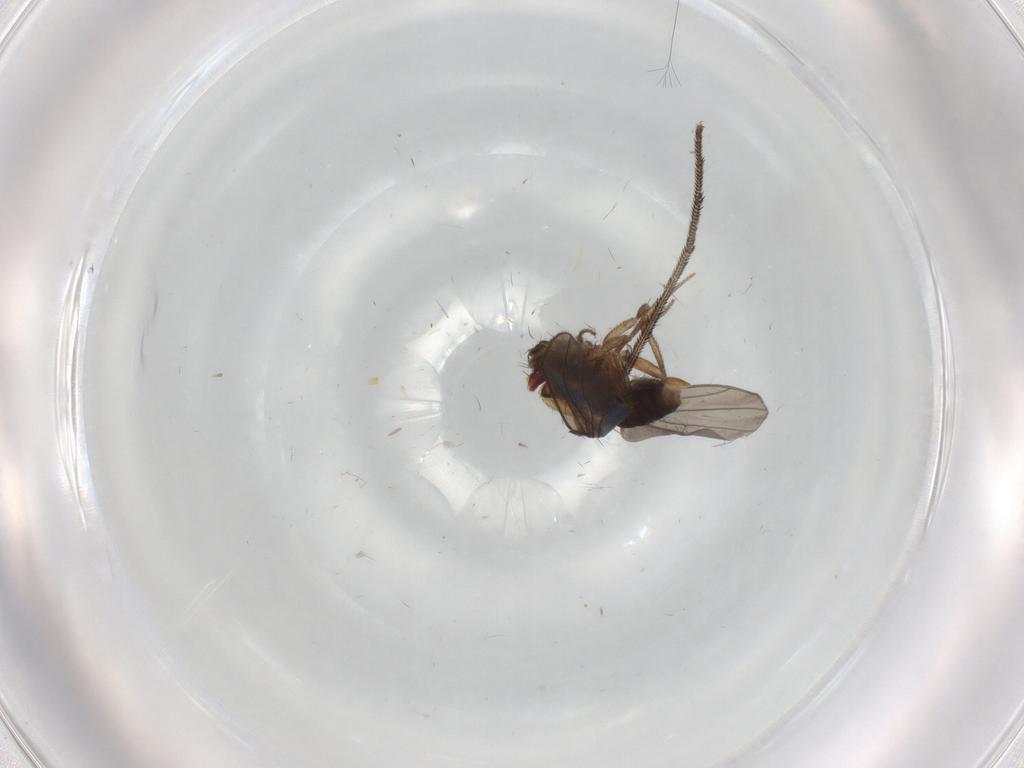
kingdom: Animalia
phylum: Arthropoda
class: Insecta
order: Diptera
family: Drosophilidae
